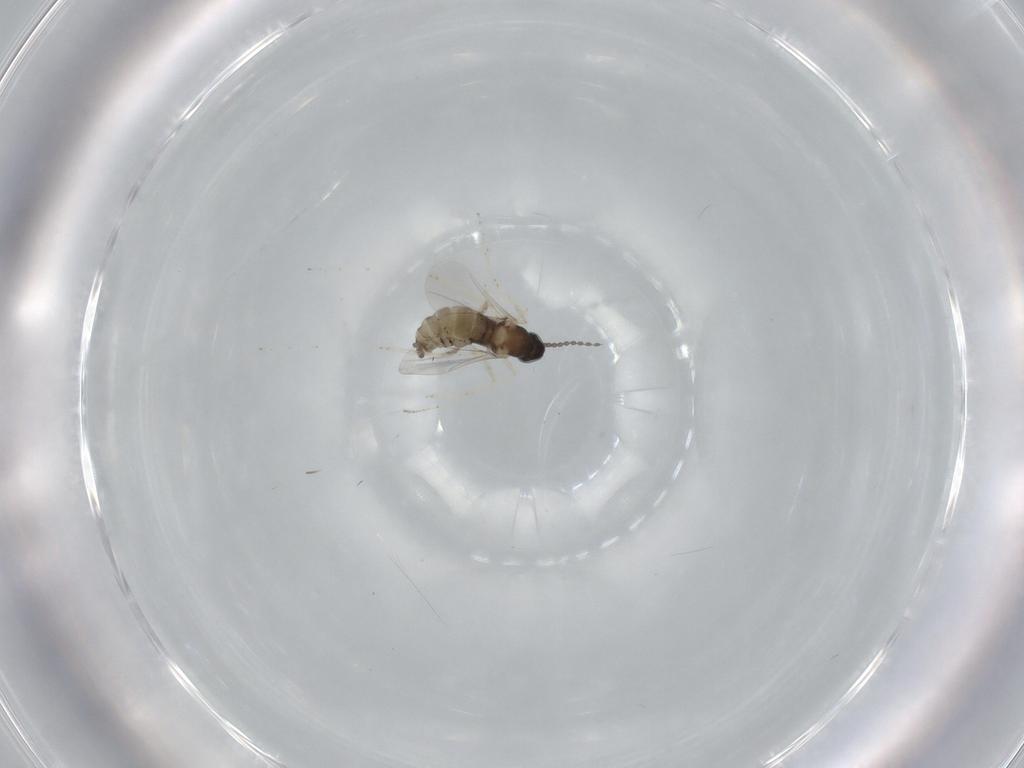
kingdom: Animalia
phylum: Arthropoda
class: Insecta
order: Diptera
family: Cecidomyiidae
